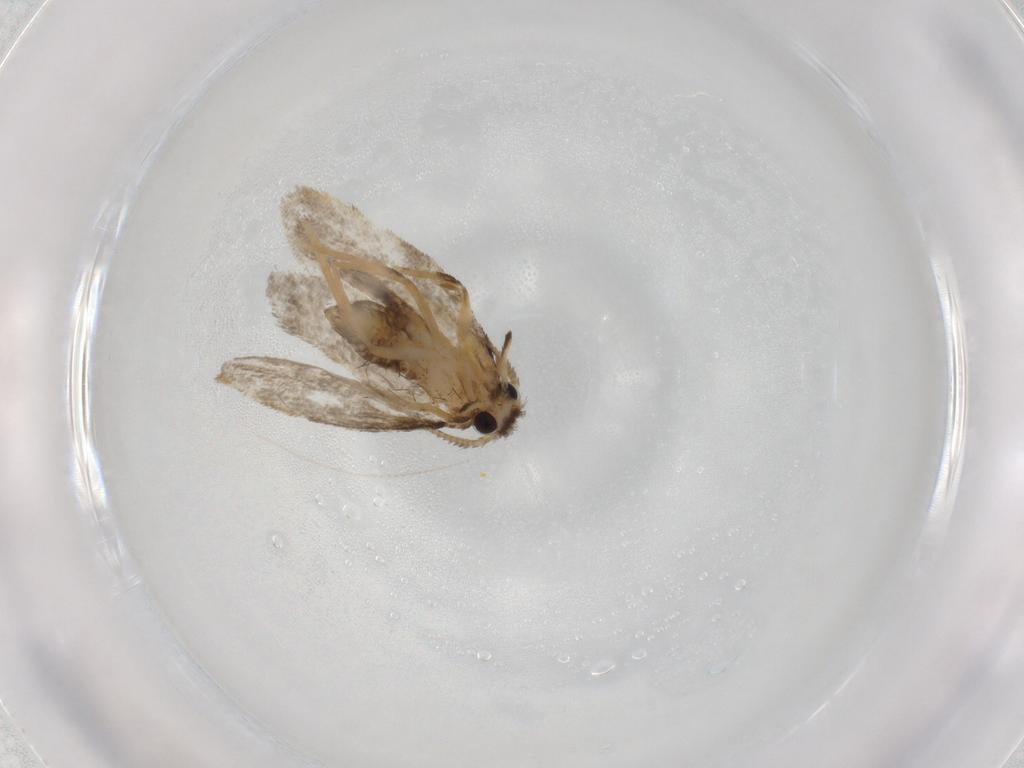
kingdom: Animalia
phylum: Arthropoda
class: Insecta
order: Lepidoptera
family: Psychidae
